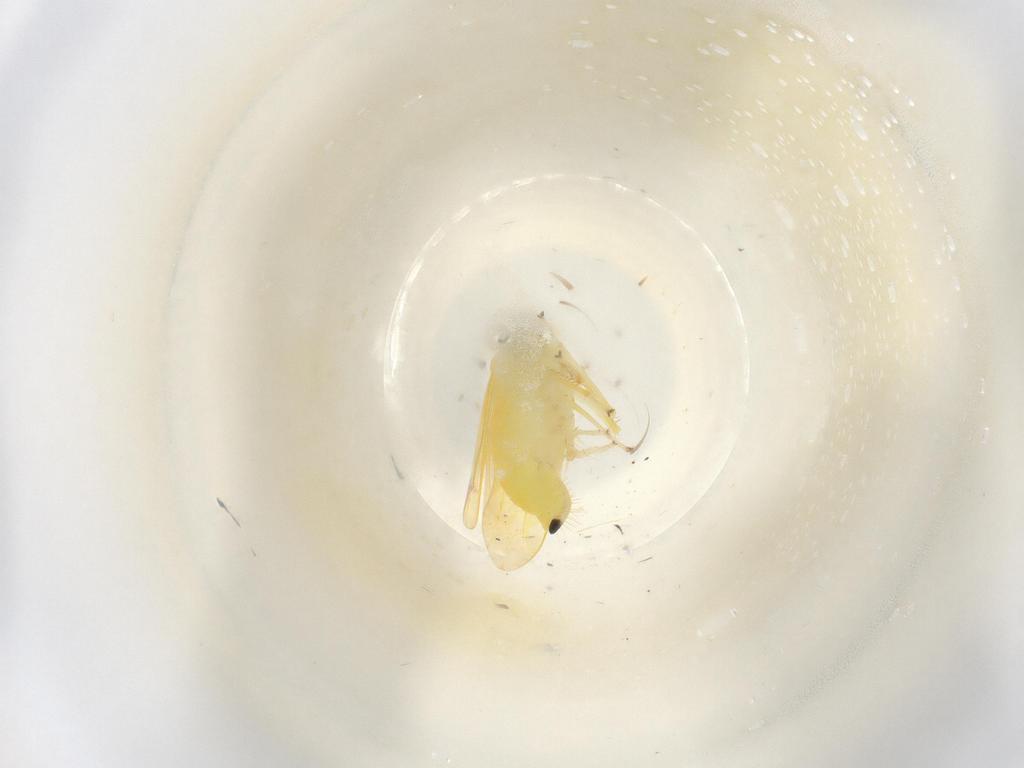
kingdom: Animalia
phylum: Arthropoda
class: Insecta
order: Hemiptera
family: Cicadellidae
